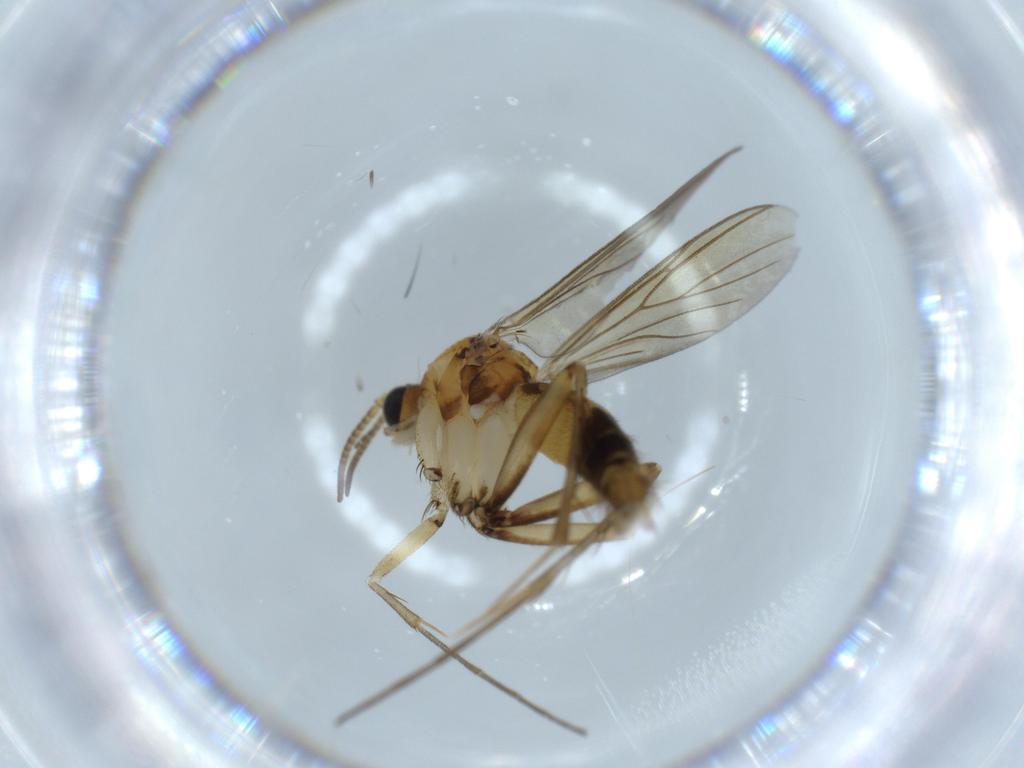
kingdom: Animalia
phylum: Arthropoda
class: Insecta
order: Diptera
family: Mycetophilidae
